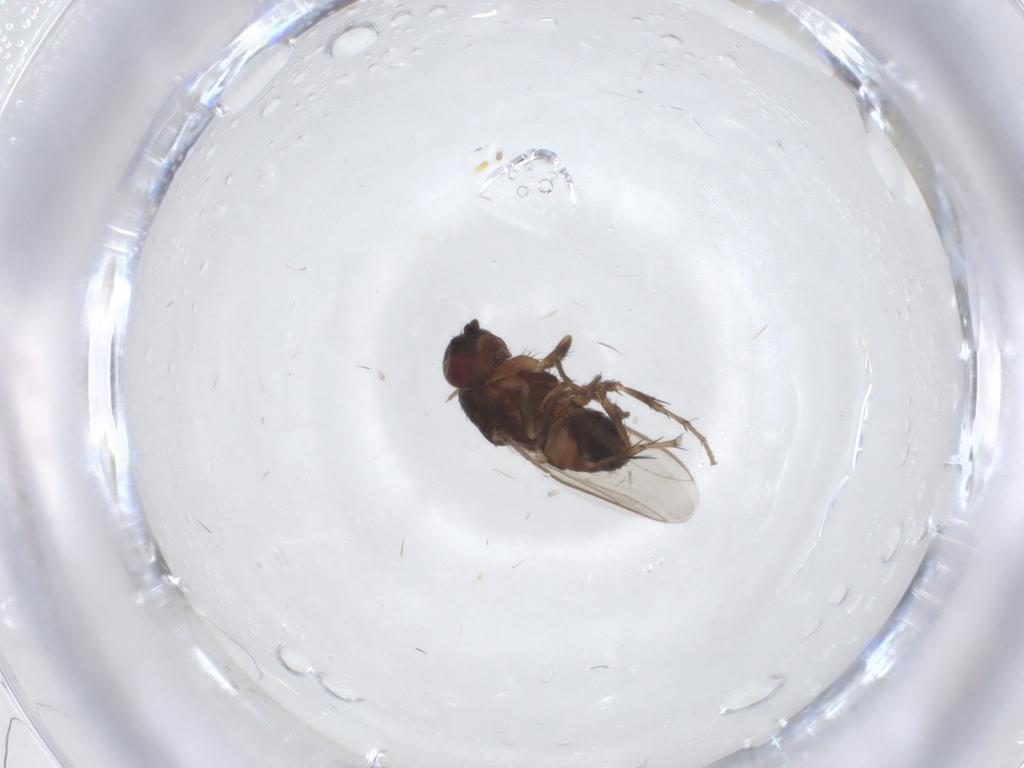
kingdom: Animalia
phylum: Arthropoda
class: Insecta
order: Diptera
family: Sphaeroceridae
